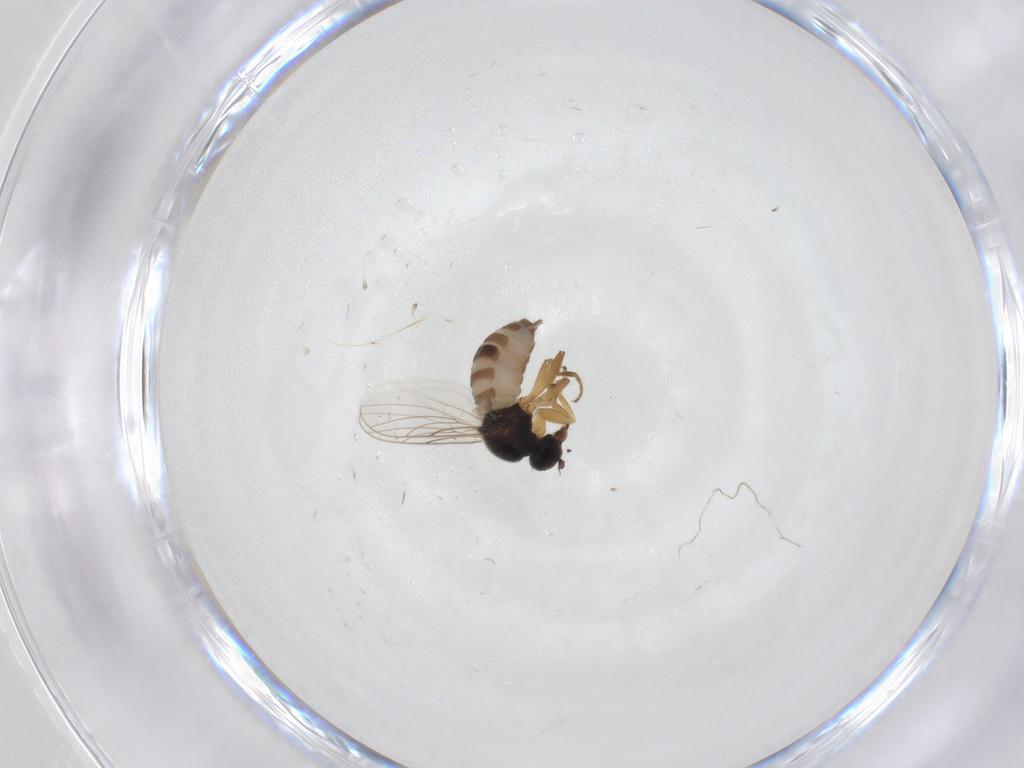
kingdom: Animalia
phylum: Arthropoda
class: Insecta
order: Diptera
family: Hybotidae
